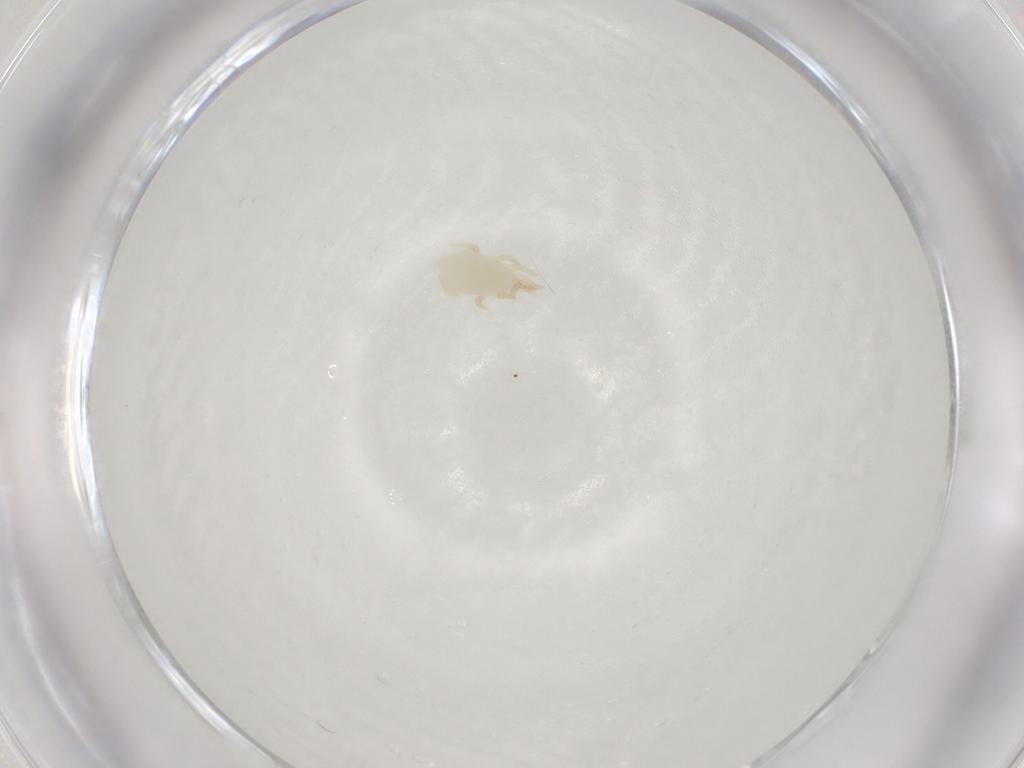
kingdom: Animalia
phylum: Arthropoda
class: Arachnida
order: Mesostigmata
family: Melicharidae
